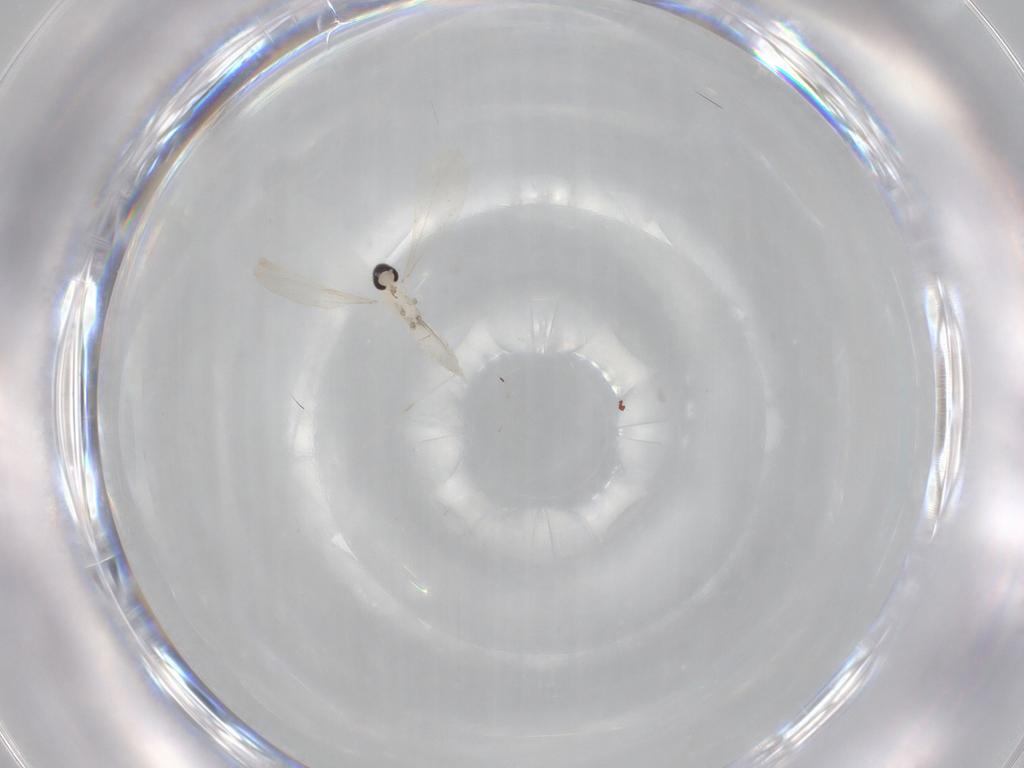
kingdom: Animalia
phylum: Arthropoda
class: Insecta
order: Diptera
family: Cecidomyiidae
